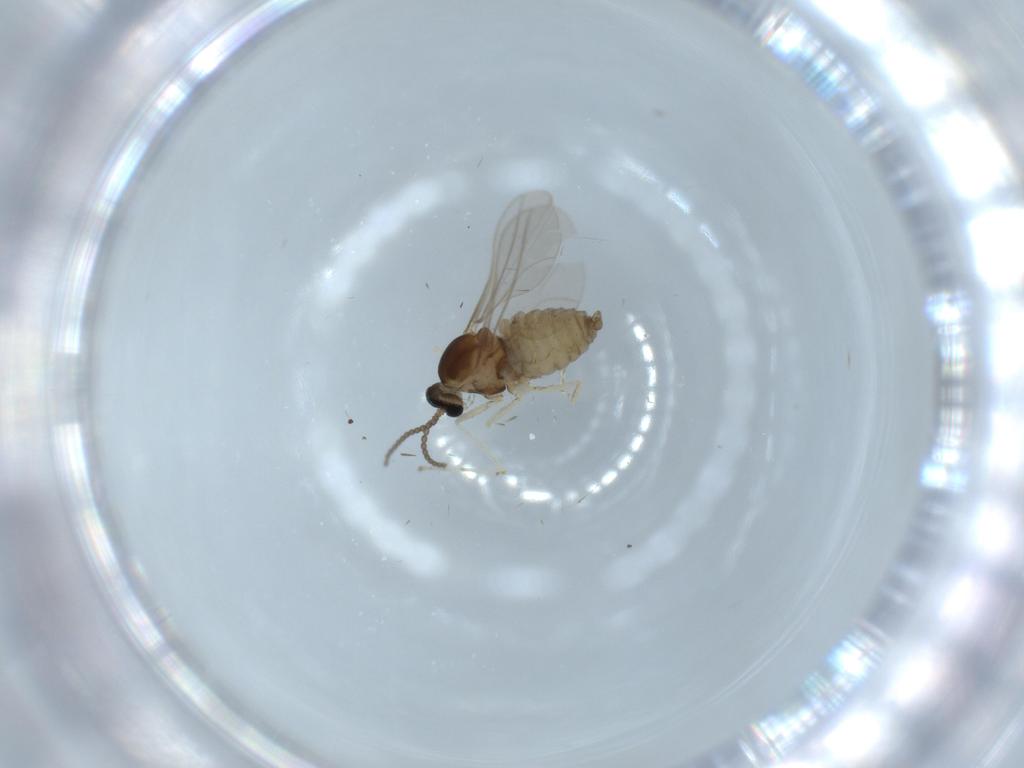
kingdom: Animalia
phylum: Arthropoda
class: Insecta
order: Diptera
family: Cecidomyiidae
